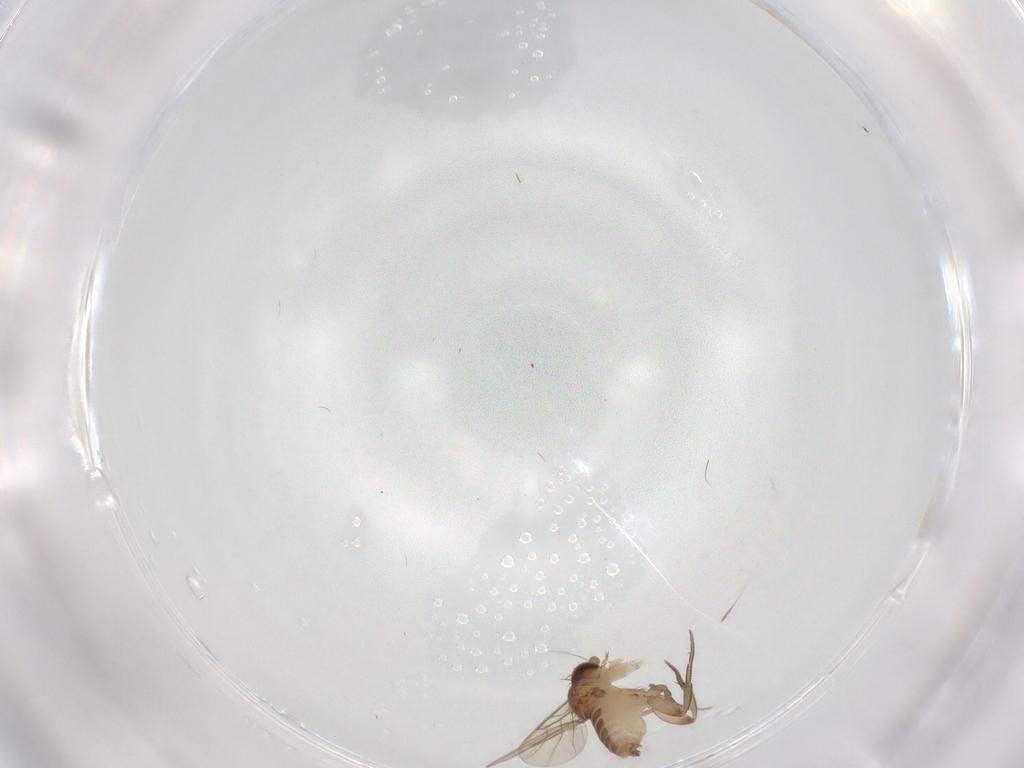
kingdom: Animalia
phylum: Arthropoda
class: Insecta
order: Diptera
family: Phoridae
